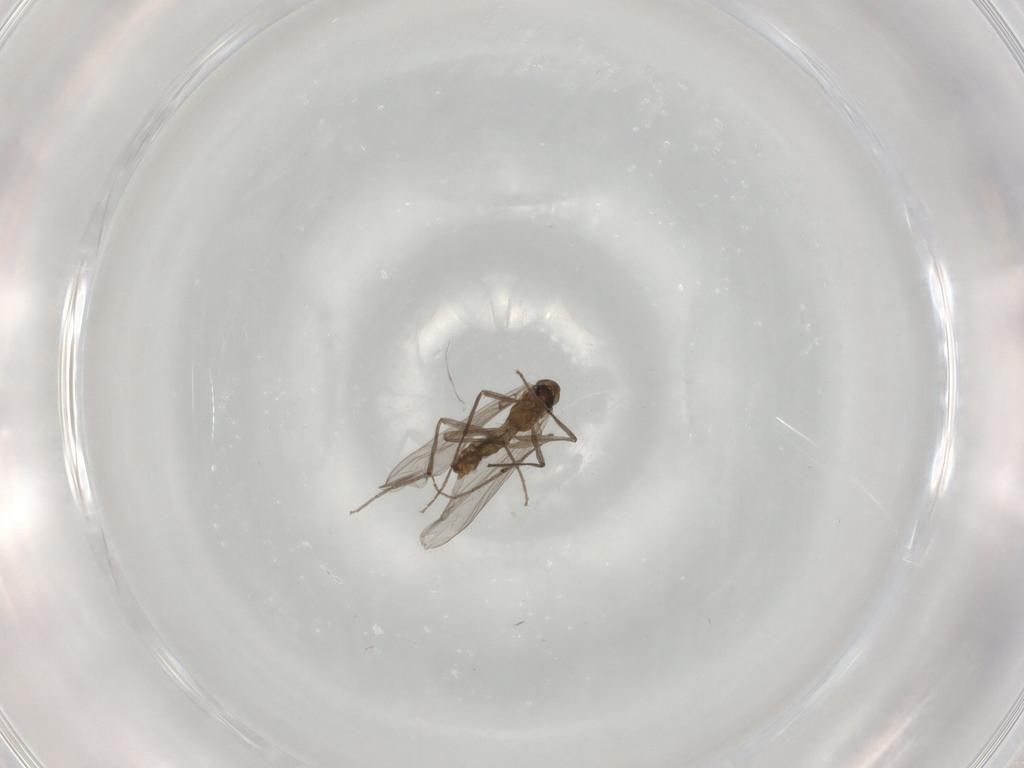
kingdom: Animalia
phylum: Arthropoda
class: Insecta
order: Diptera
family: Chironomidae
